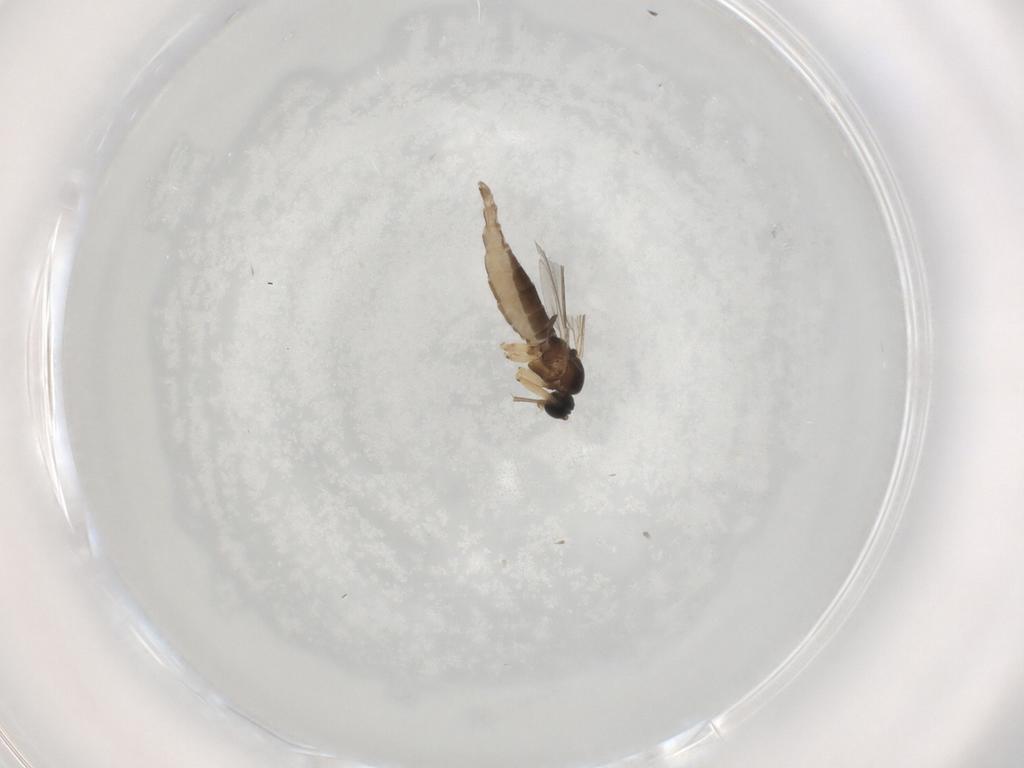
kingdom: Animalia
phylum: Arthropoda
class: Insecta
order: Diptera
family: Sciaridae
